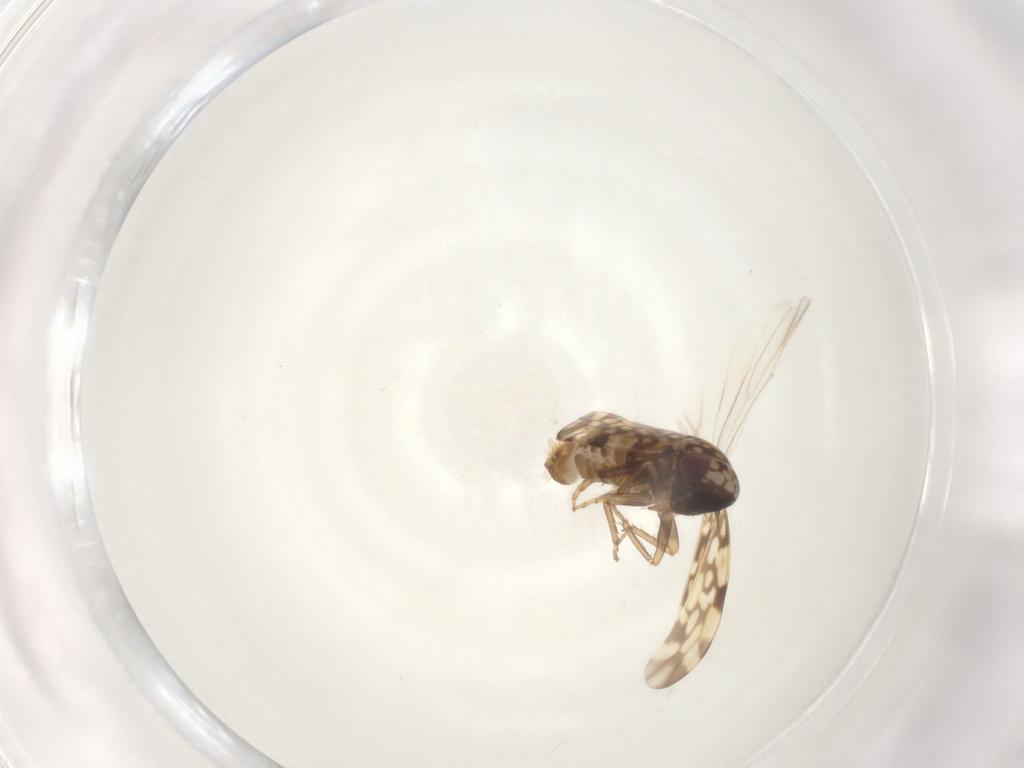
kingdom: Animalia
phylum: Arthropoda
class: Insecta
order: Hemiptera
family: Cicadellidae
